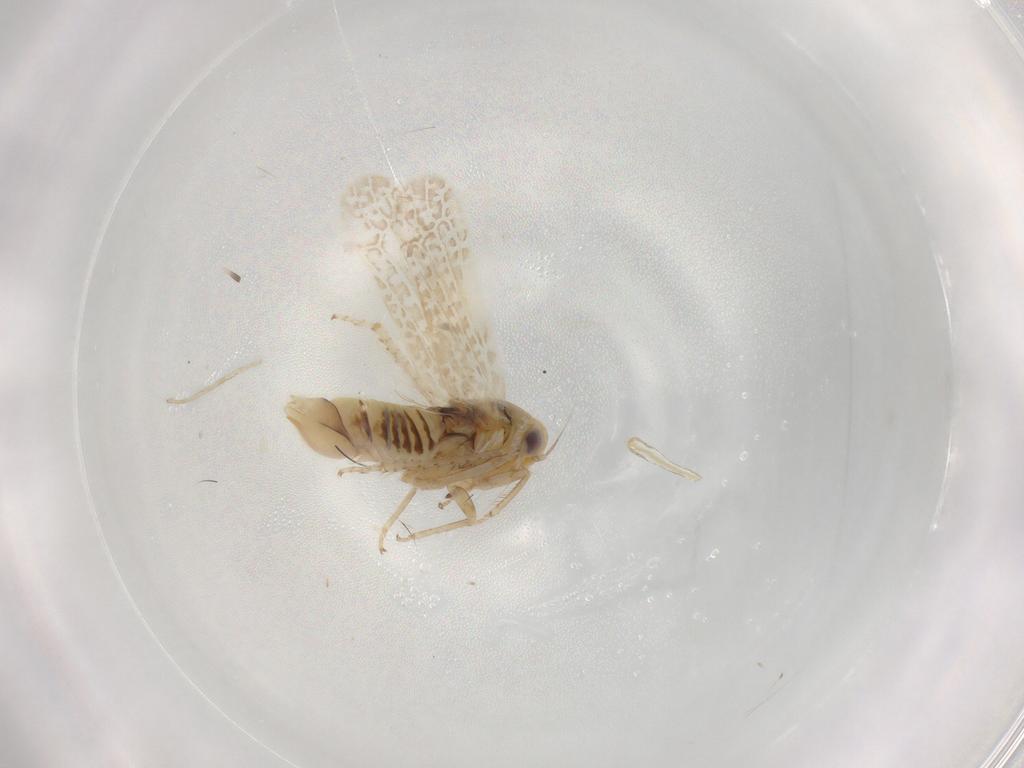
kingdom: Animalia
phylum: Arthropoda
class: Insecta
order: Hemiptera
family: Cicadellidae
